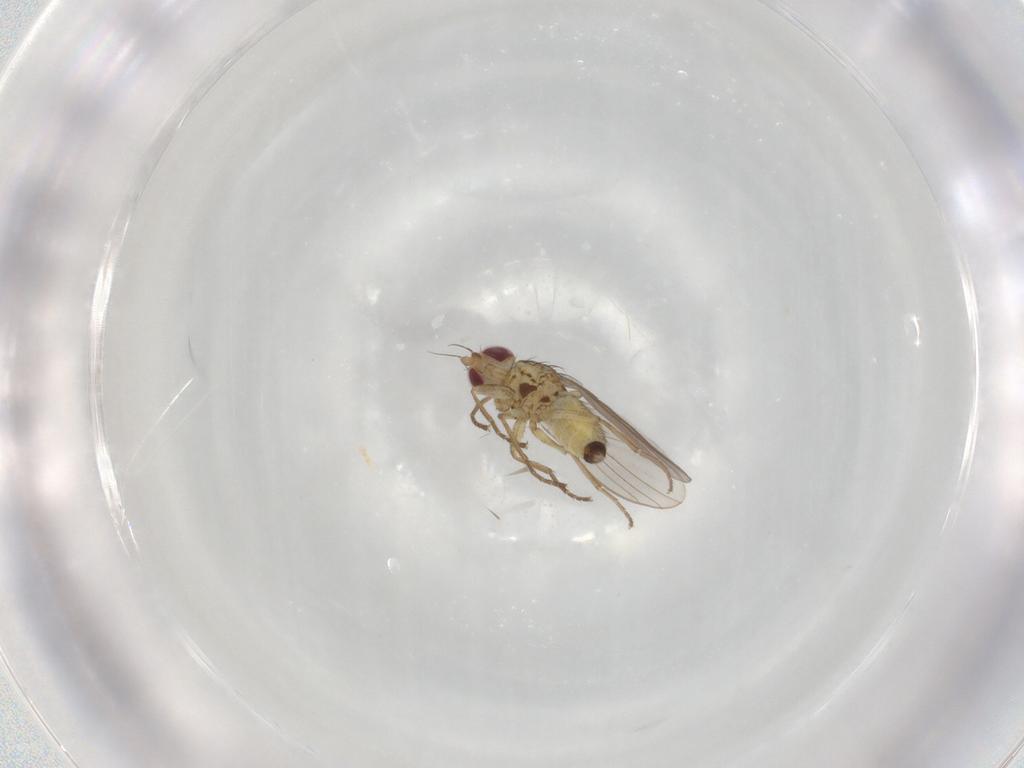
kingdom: Animalia
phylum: Arthropoda
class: Insecta
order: Diptera
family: Agromyzidae
